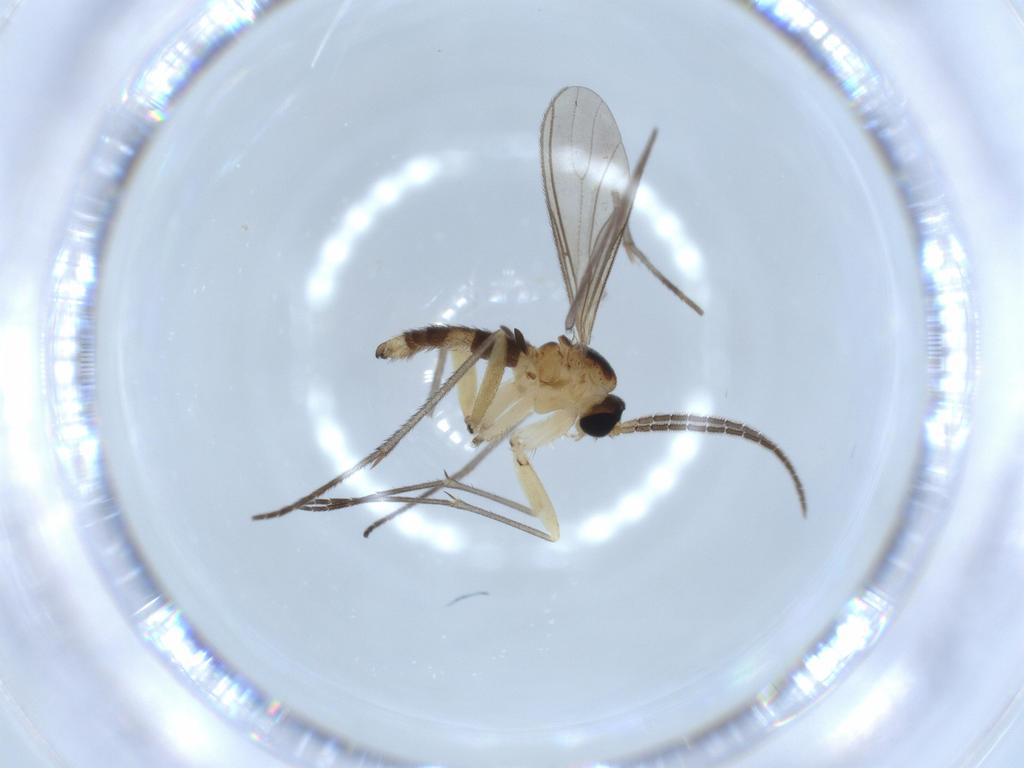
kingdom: Animalia
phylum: Arthropoda
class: Insecta
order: Diptera
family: Sciaridae
